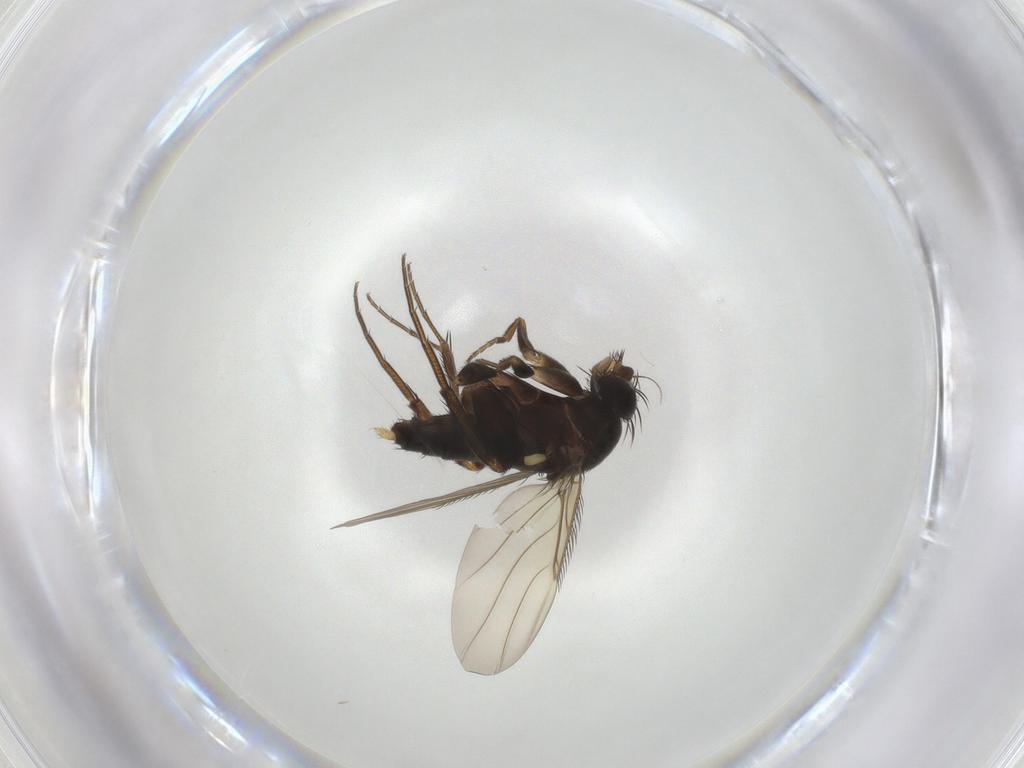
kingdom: Animalia
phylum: Arthropoda
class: Insecta
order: Diptera
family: Phoridae
